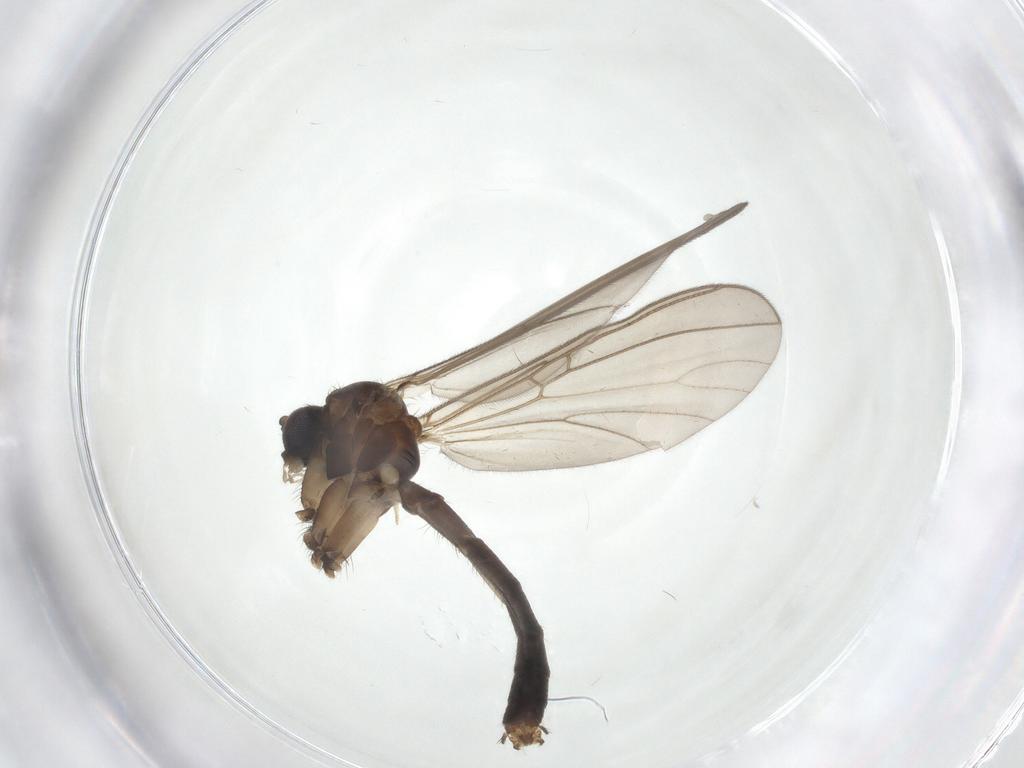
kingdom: Animalia
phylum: Arthropoda
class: Insecta
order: Diptera
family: Mycetophilidae
